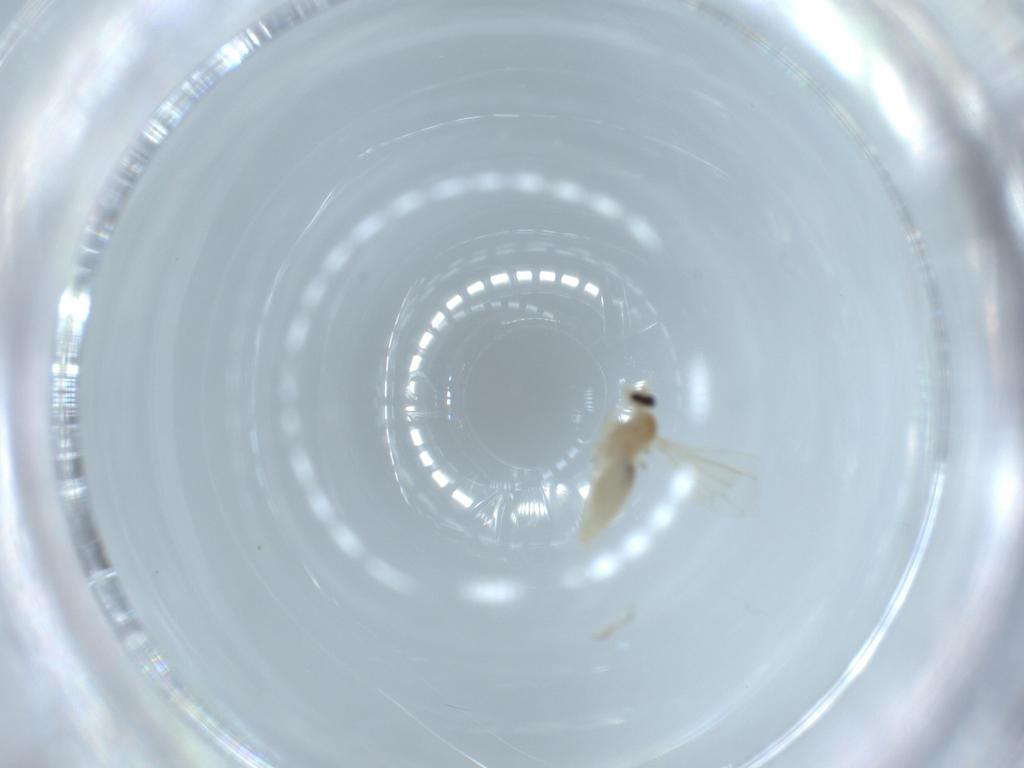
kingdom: Animalia
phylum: Arthropoda
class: Insecta
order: Diptera
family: Cecidomyiidae
